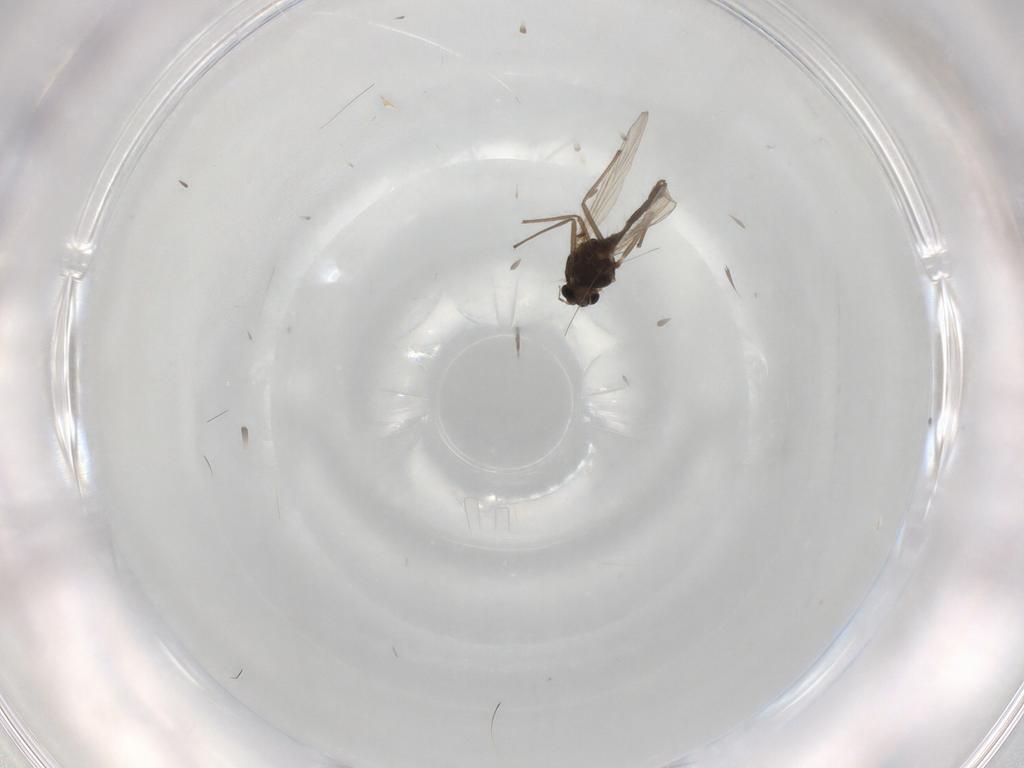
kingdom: Animalia
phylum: Arthropoda
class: Insecta
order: Diptera
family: Chironomidae
